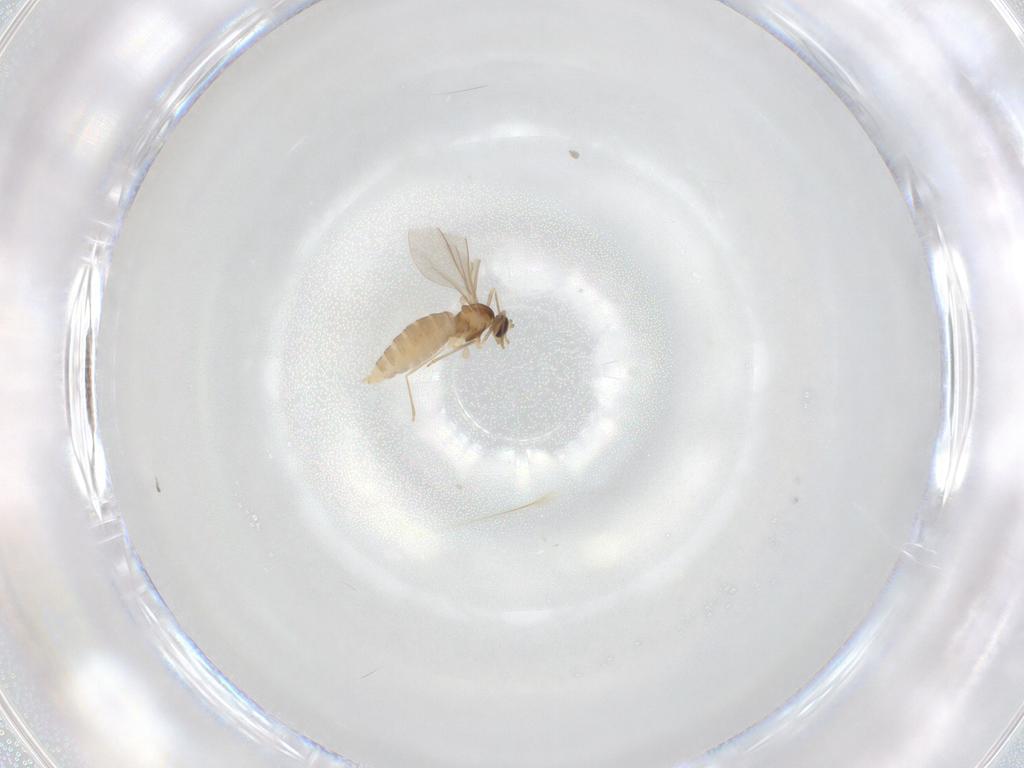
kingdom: Animalia
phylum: Arthropoda
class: Insecta
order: Diptera
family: Cecidomyiidae
